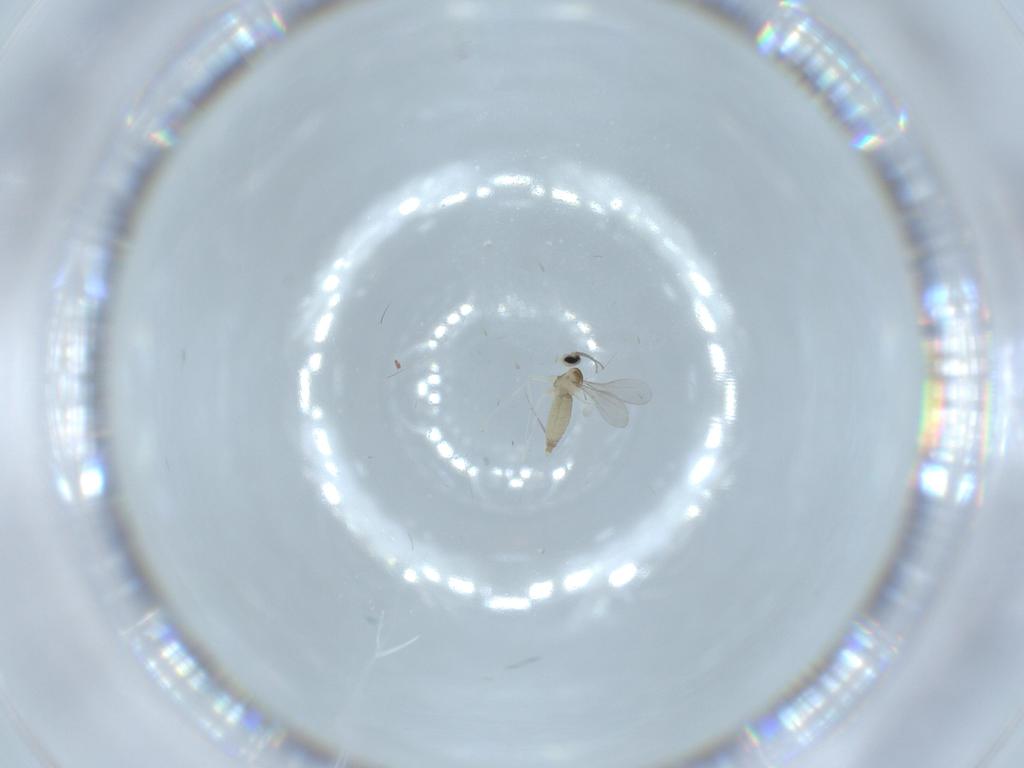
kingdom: Animalia
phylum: Arthropoda
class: Insecta
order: Diptera
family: Sciaridae
